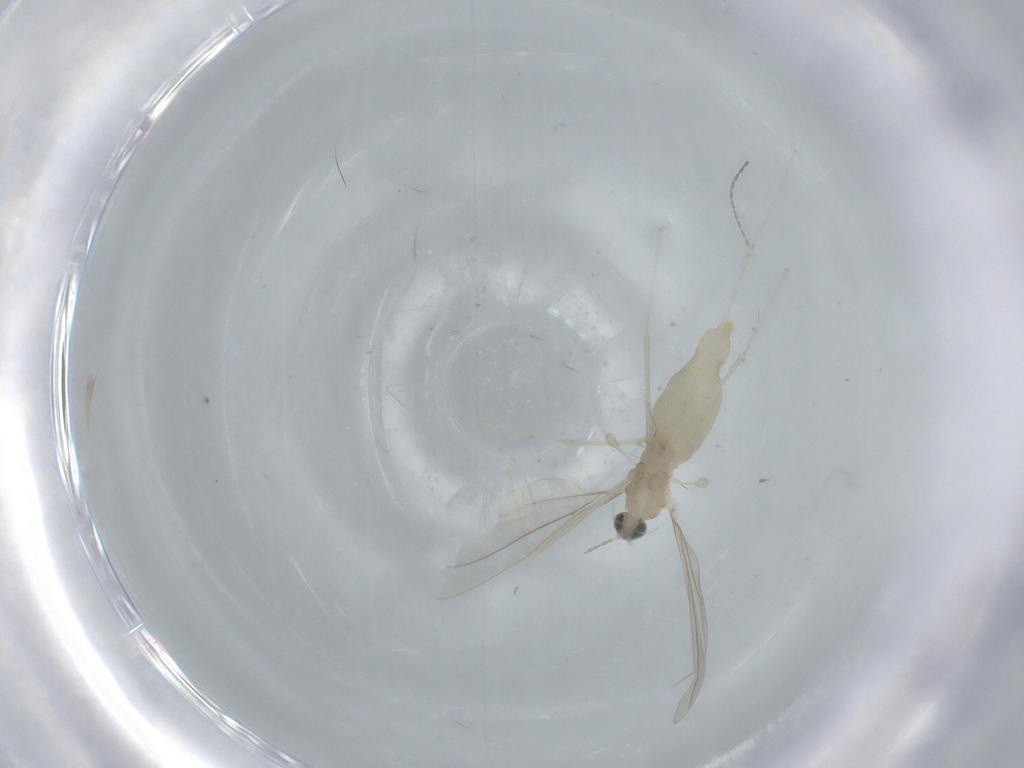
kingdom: Animalia
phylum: Arthropoda
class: Insecta
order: Diptera
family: Cecidomyiidae
